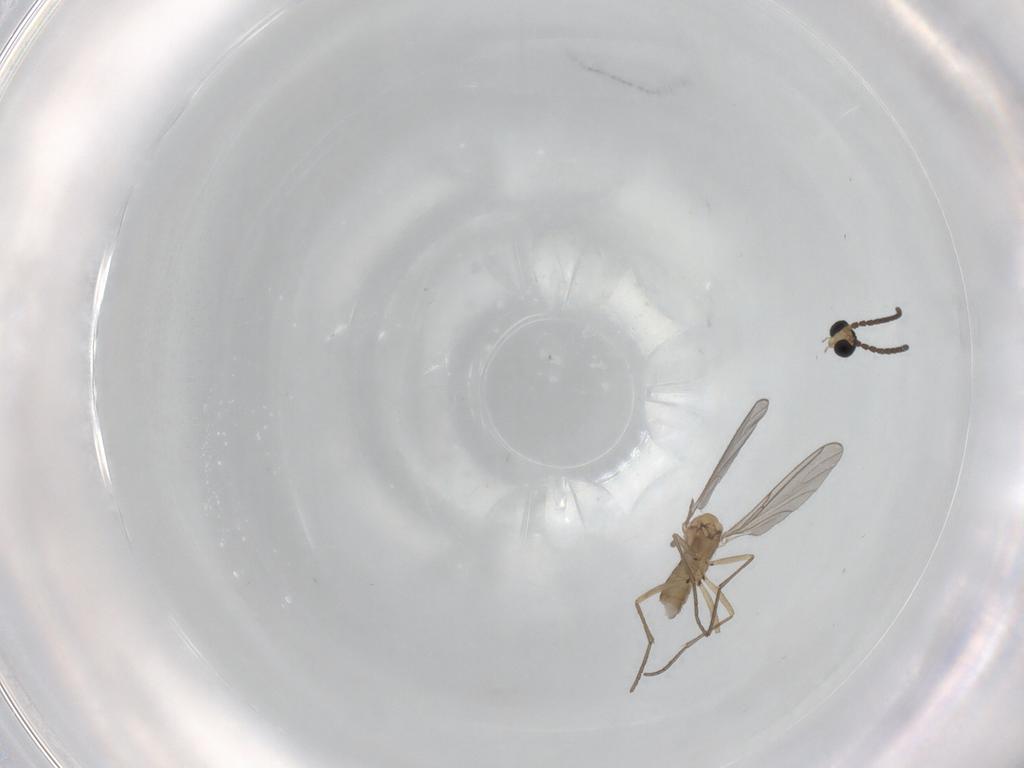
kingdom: Animalia
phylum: Arthropoda
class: Insecta
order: Diptera
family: Sciaridae
